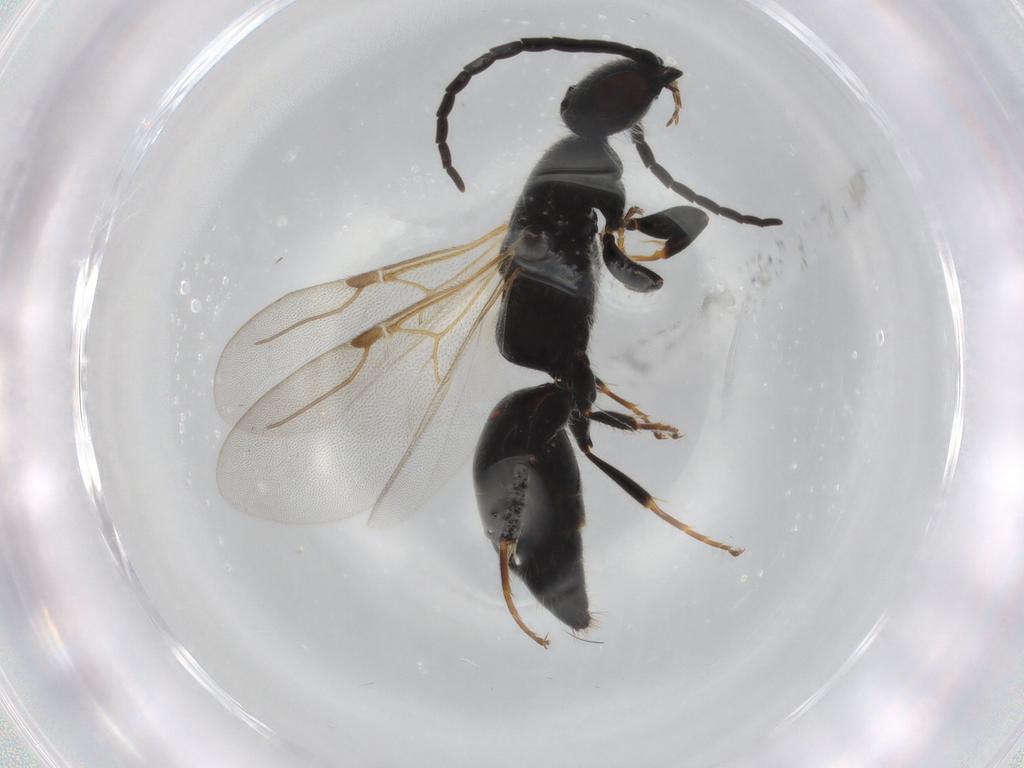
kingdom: Animalia
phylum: Arthropoda
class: Insecta
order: Hymenoptera
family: Bethylidae
